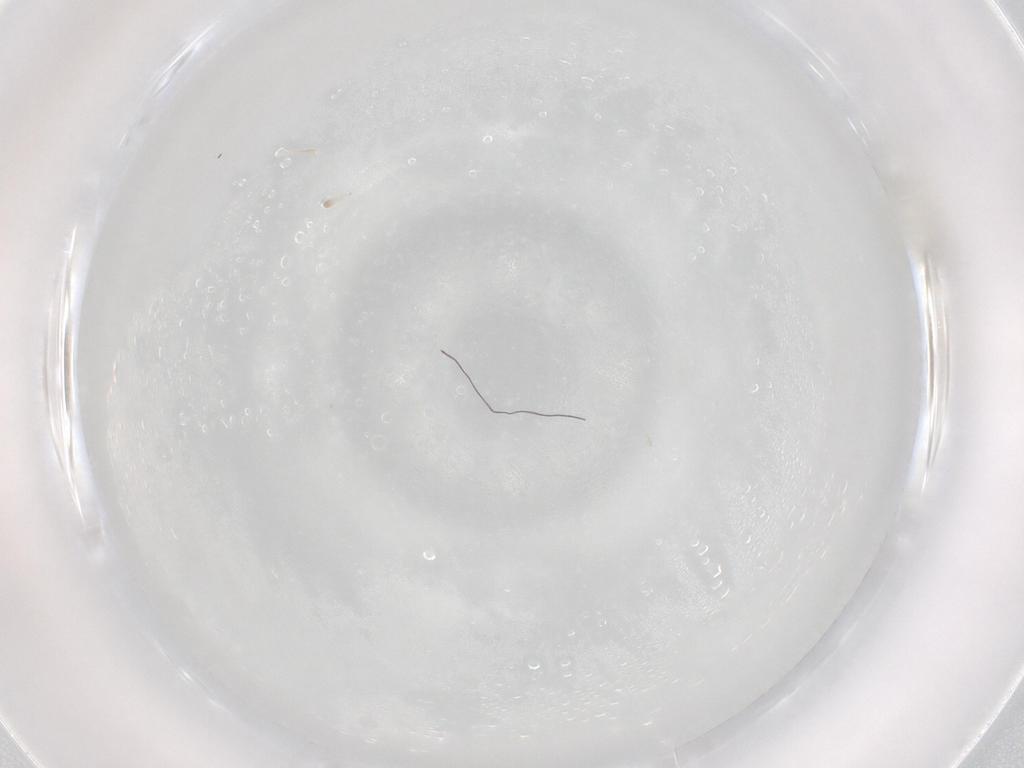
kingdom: Animalia
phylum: Arthropoda
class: Insecta
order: Diptera
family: Cecidomyiidae
